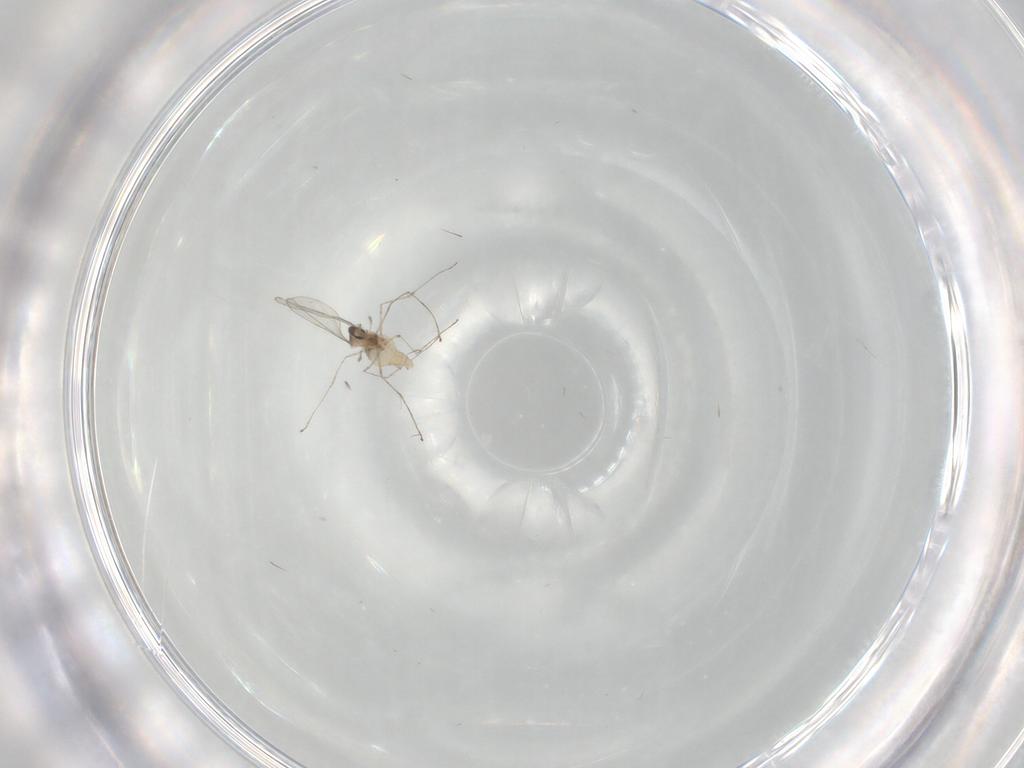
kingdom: Animalia
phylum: Arthropoda
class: Insecta
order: Diptera
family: Cecidomyiidae
